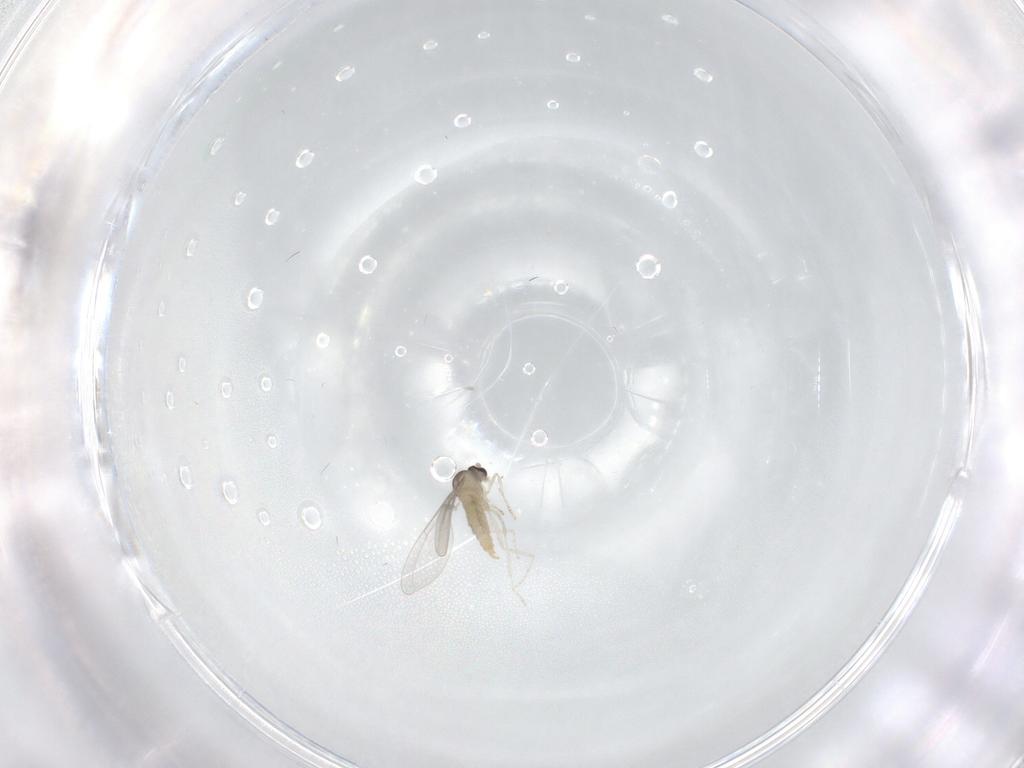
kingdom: Animalia
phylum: Arthropoda
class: Insecta
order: Diptera
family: Cecidomyiidae
